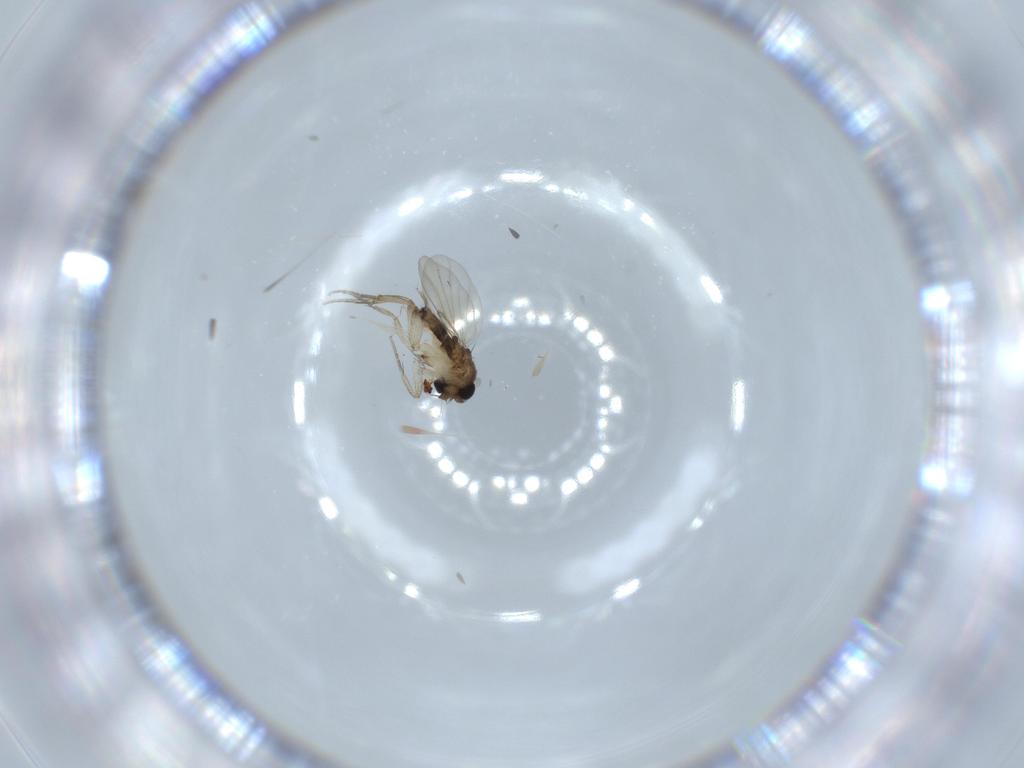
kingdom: Animalia
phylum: Arthropoda
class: Insecta
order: Diptera
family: Phoridae
